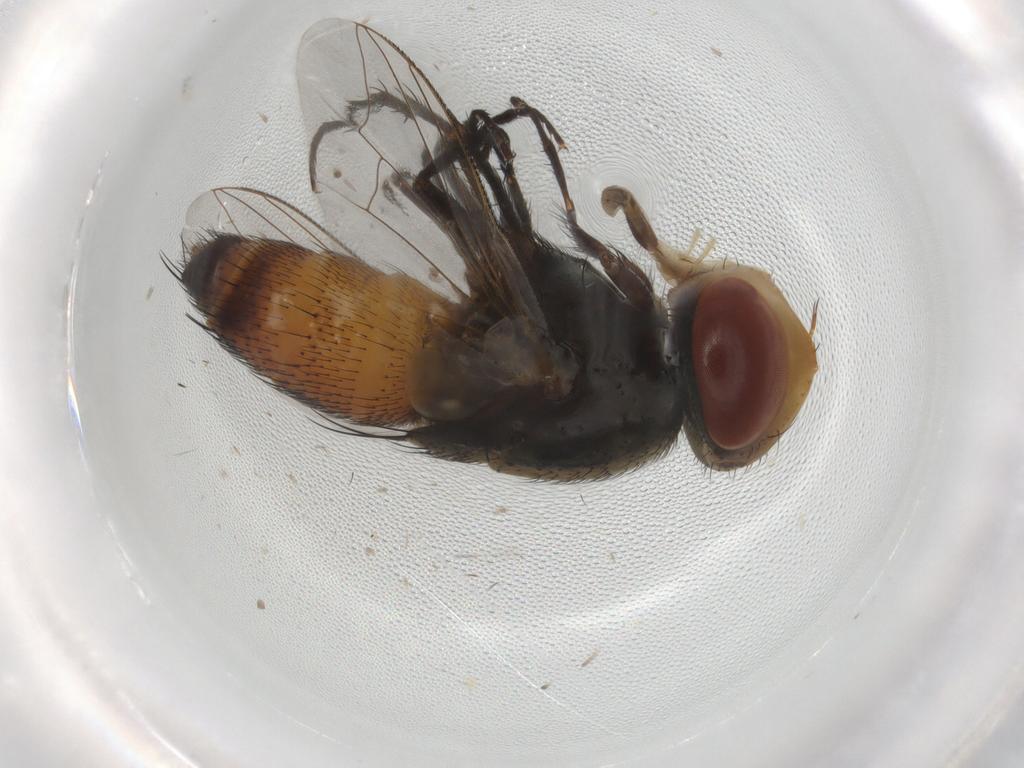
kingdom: Animalia
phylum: Arthropoda
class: Insecta
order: Diptera
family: Sarcophagidae
